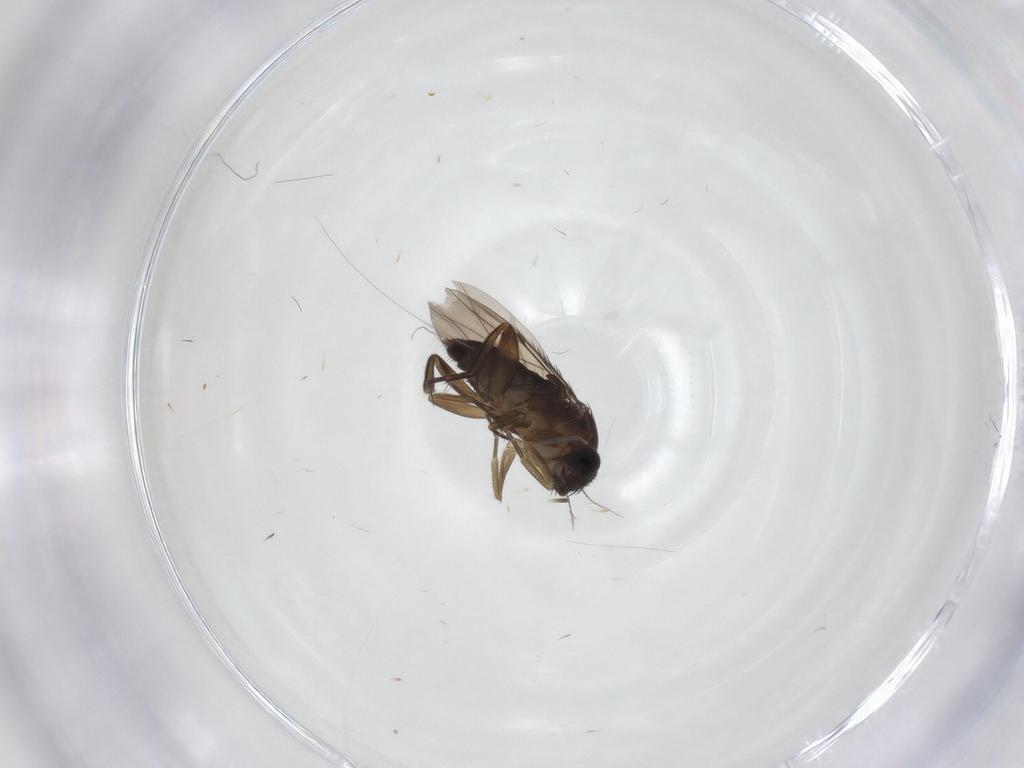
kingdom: Animalia
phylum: Arthropoda
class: Insecta
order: Diptera
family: Phoridae
